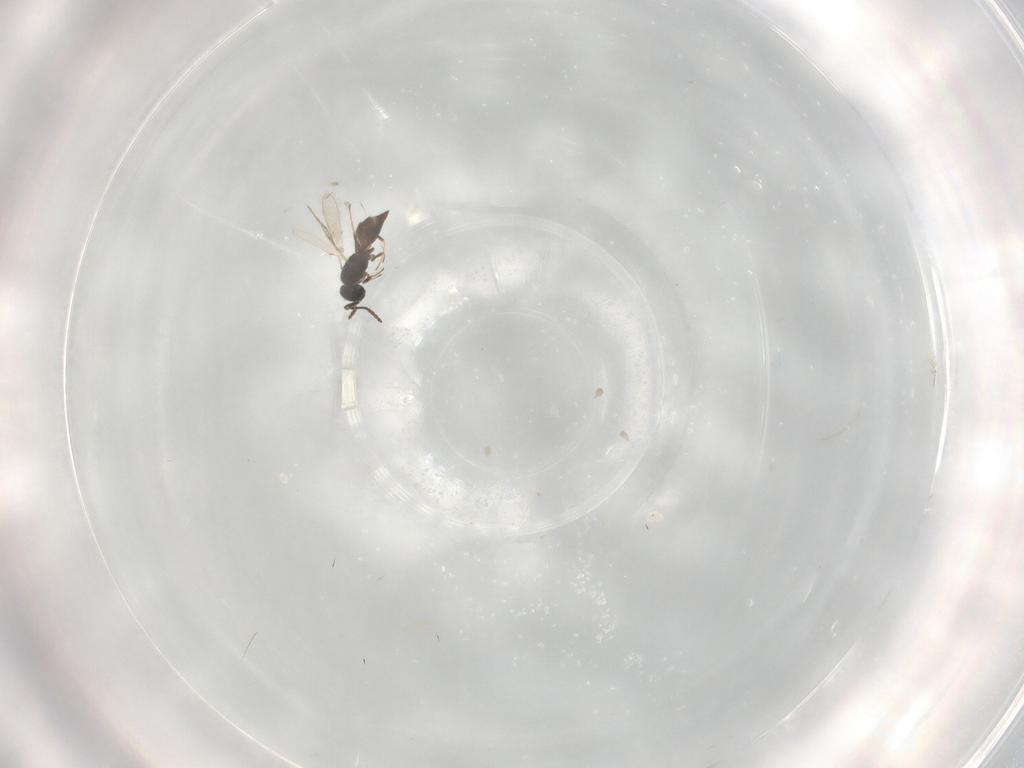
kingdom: Animalia
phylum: Arthropoda
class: Insecta
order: Hymenoptera
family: Scelionidae
